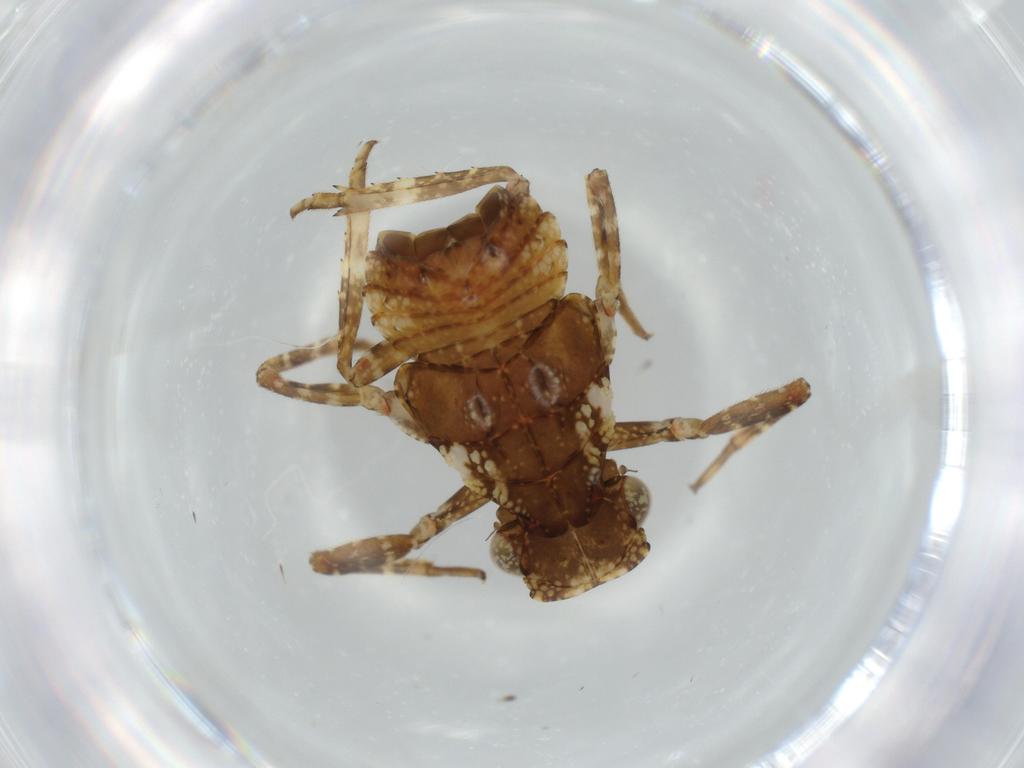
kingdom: Animalia
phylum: Arthropoda
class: Insecta
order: Hemiptera
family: Fulgoridae
